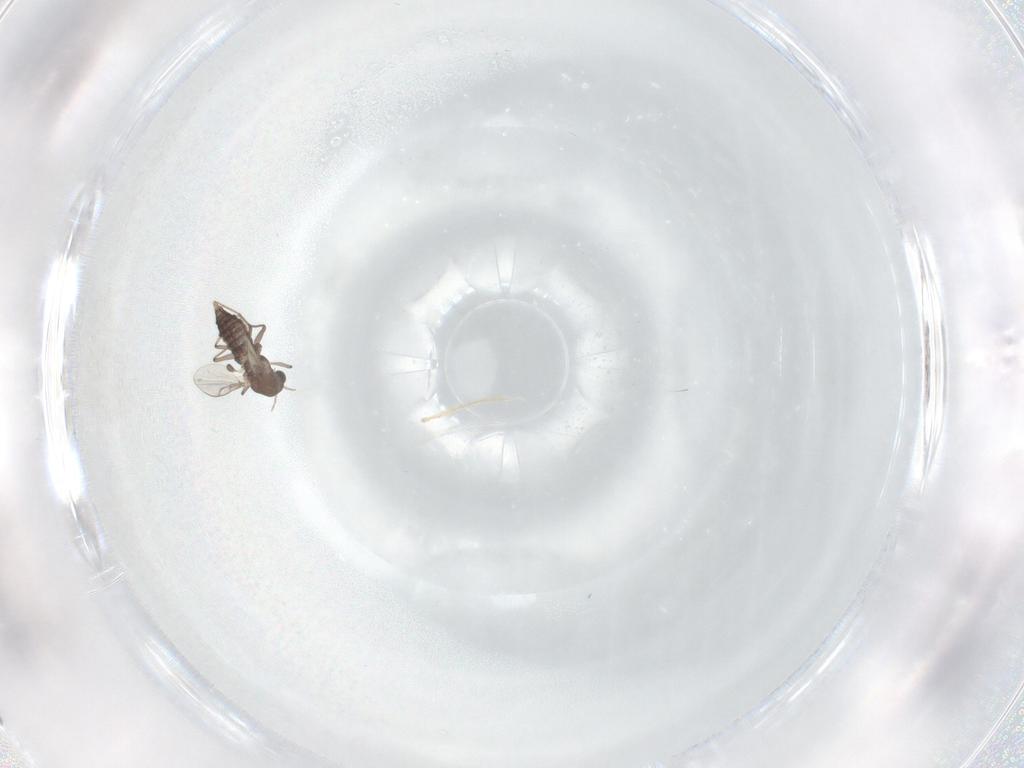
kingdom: Animalia
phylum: Arthropoda
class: Insecta
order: Diptera
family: Chironomidae
